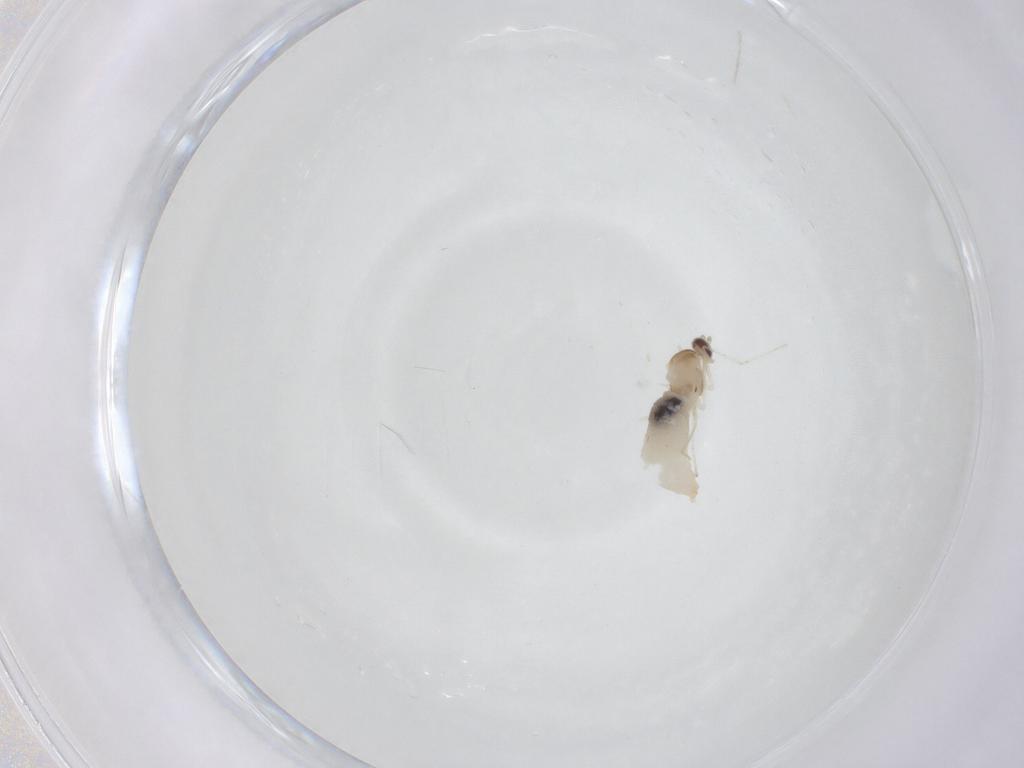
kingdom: Animalia
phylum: Arthropoda
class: Insecta
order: Diptera
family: Cecidomyiidae
